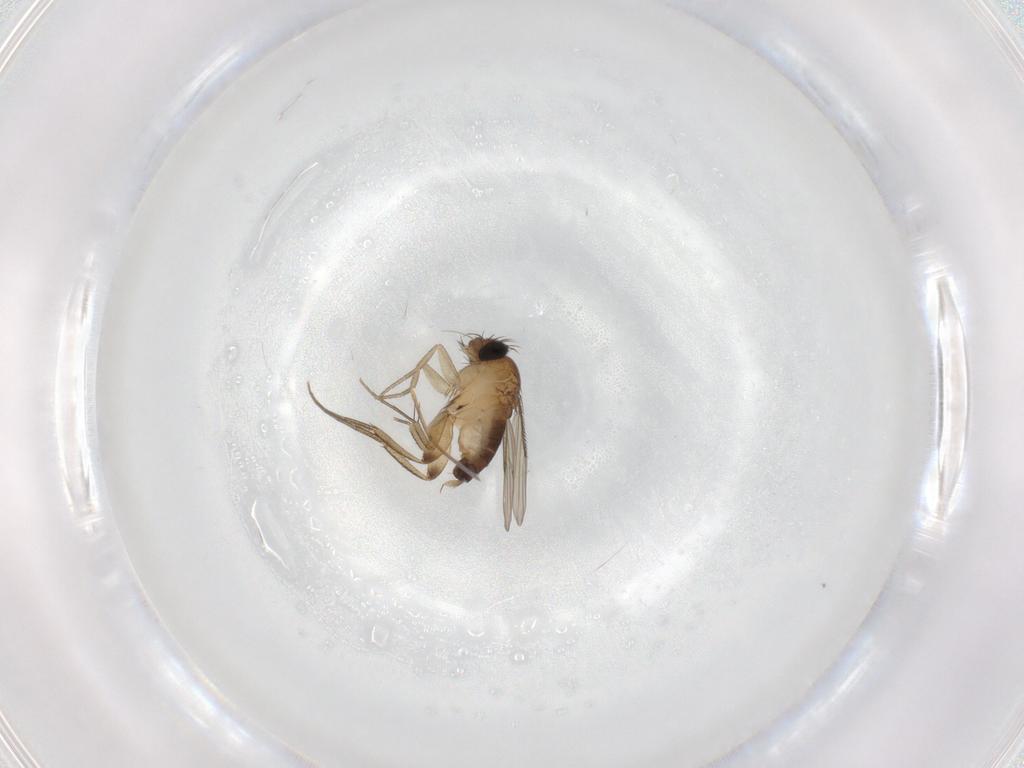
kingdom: Animalia
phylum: Arthropoda
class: Insecta
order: Diptera
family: Phoridae
